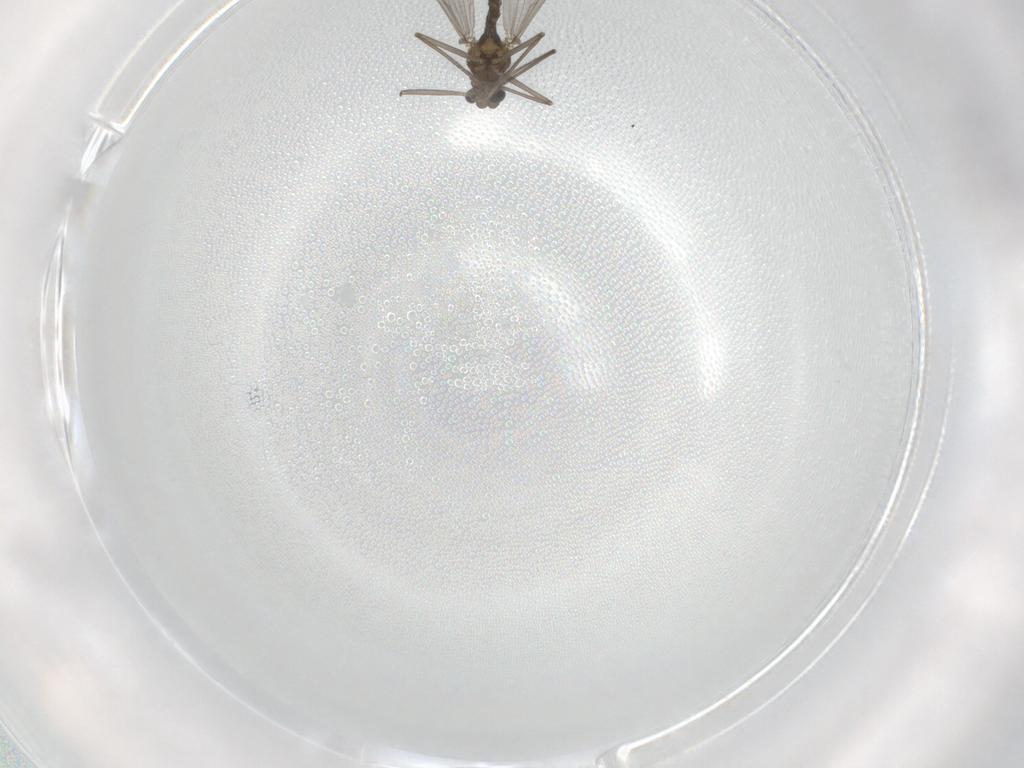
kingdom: Animalia
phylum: Arthropoda
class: Insecta
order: Diptera
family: Chironomidae
